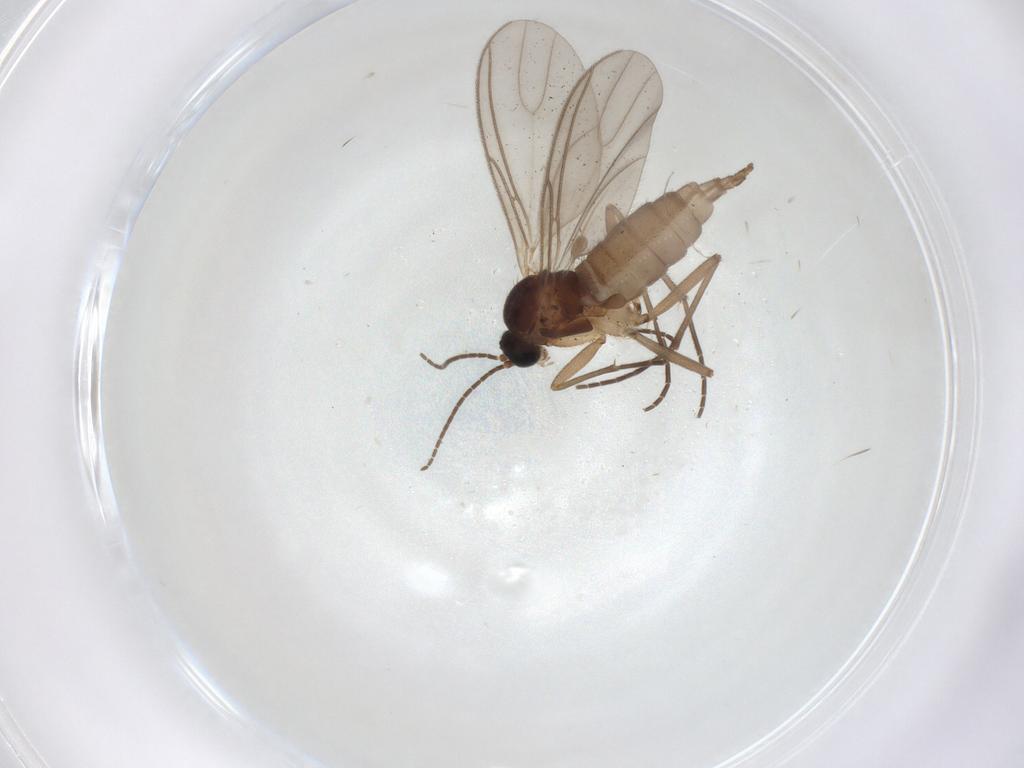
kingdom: Animalia
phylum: Arthropoda
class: Insecta
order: Diptera
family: Sciaridae
